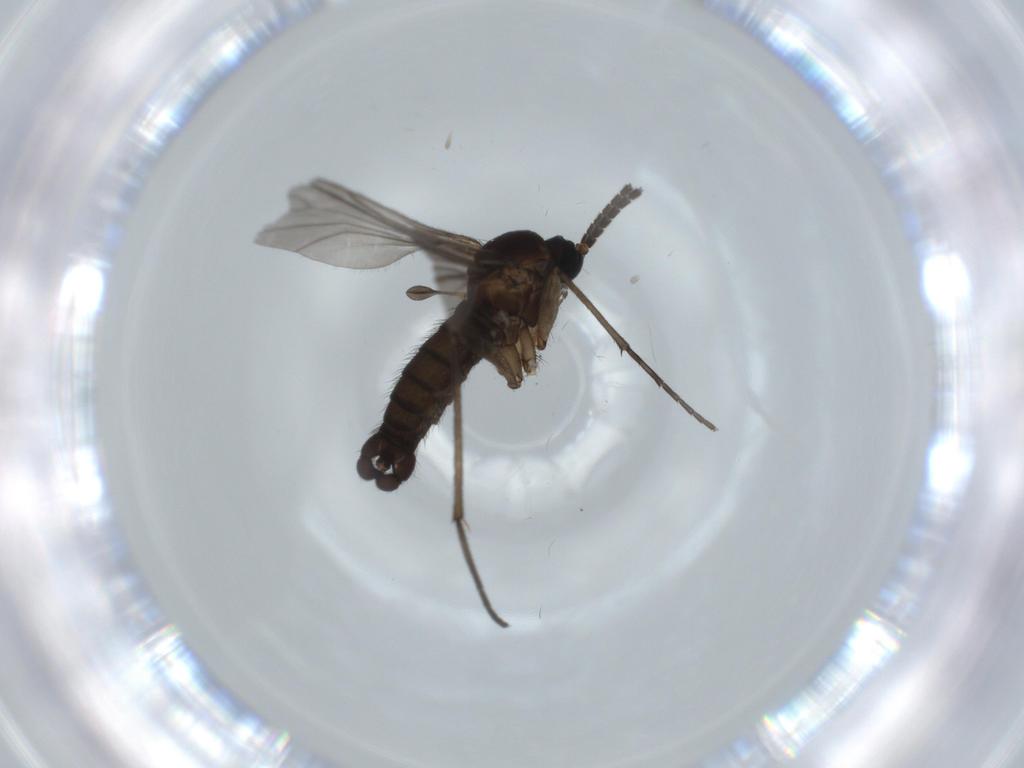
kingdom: Animalia
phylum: Arthropoda
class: Insecta
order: Diptera
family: Sciaridae
